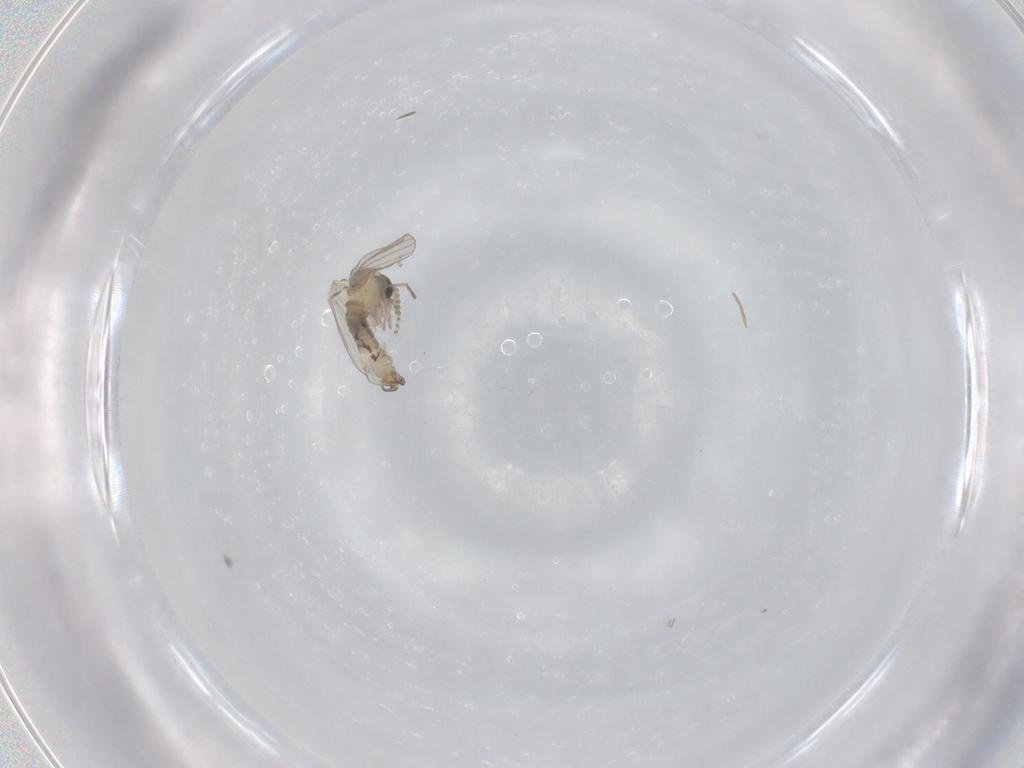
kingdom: Animalia
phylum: Arthropoda
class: Insecta
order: Diptera
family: Psychodidae
